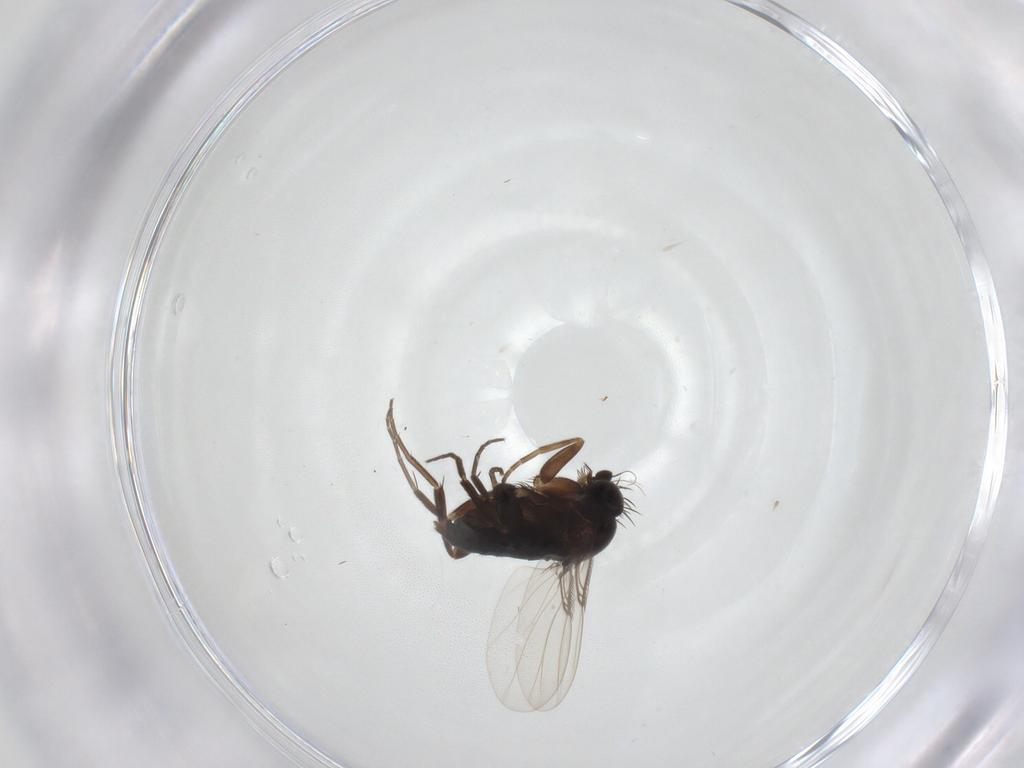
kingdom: Animalia
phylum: Arthropoda
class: Insecta
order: Diptera
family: Phoridae
